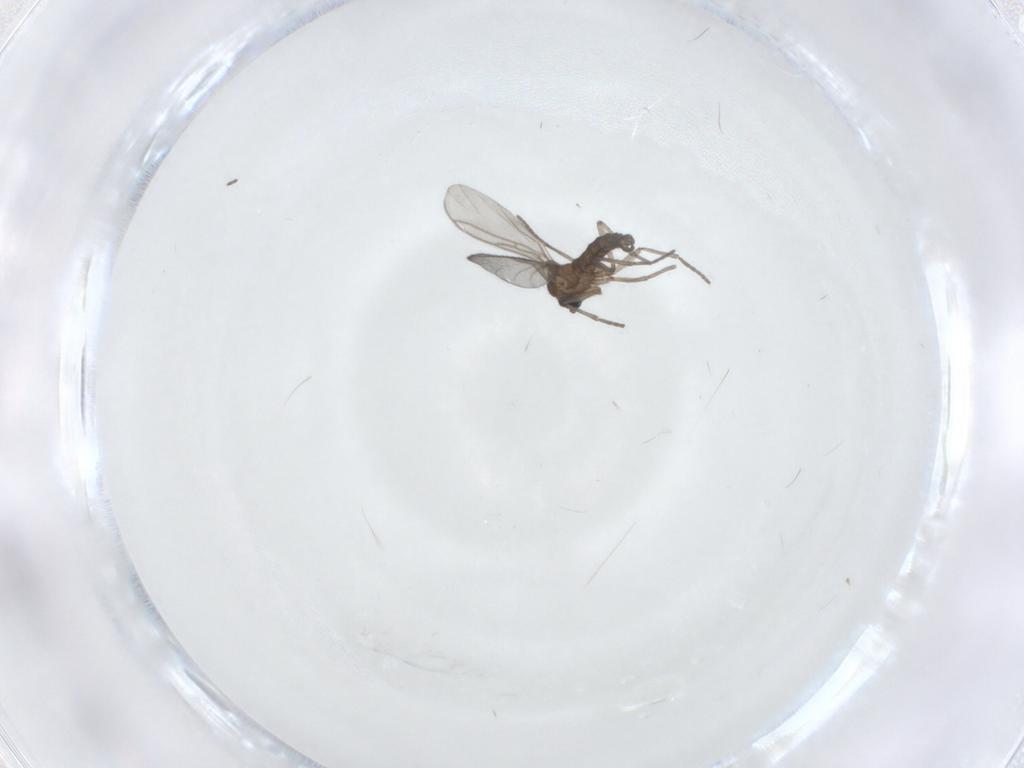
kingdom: Animalia
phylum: Arthropoda
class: Insecta
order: Diptera
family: Sciaridae
